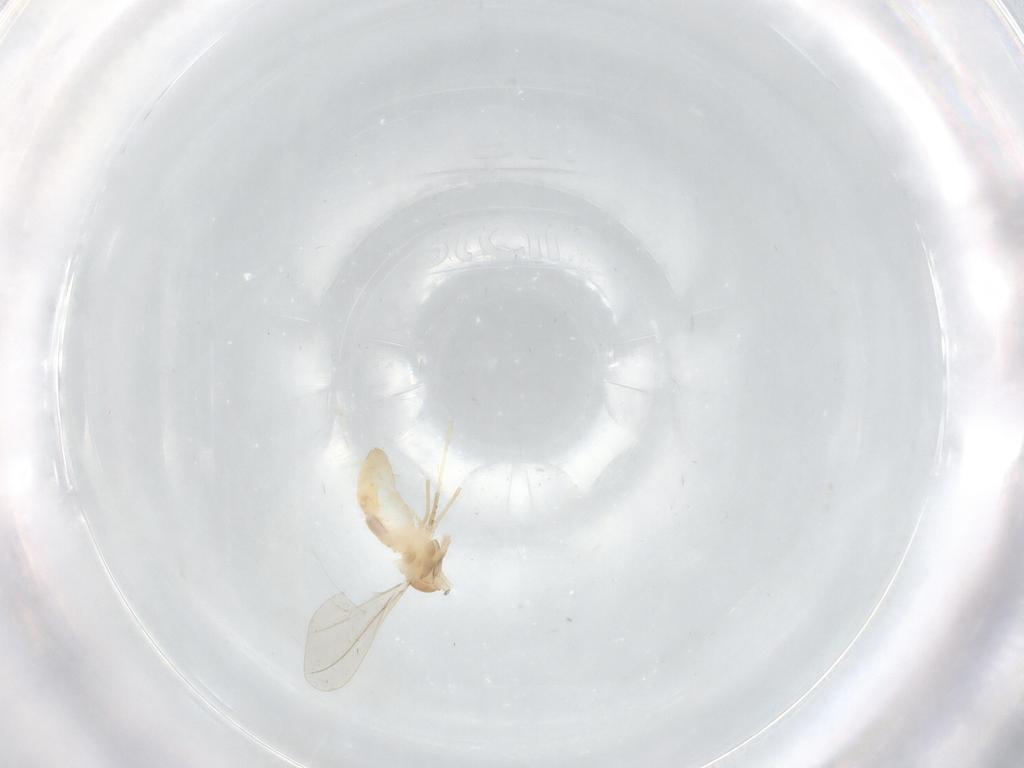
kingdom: Animalia
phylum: Arthropoda
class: Insecta
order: Diptera
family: Cecidomyiidae
